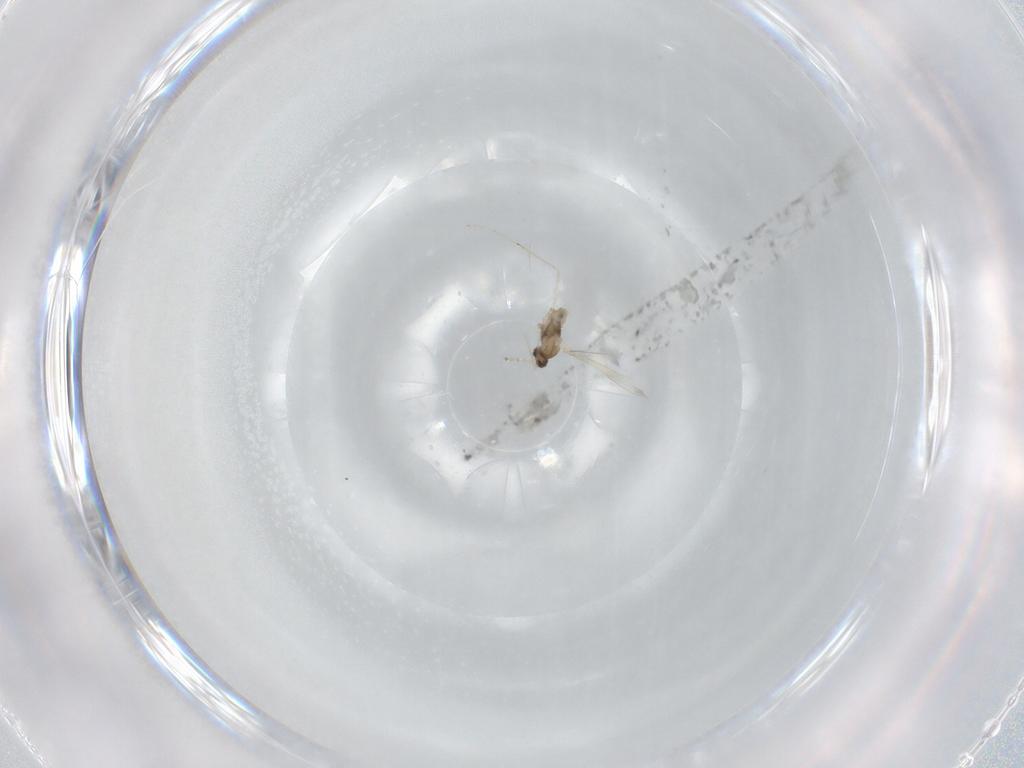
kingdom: Animalia
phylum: Arthropoda
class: Insecta
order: Diptera
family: Cecidomyiidae
